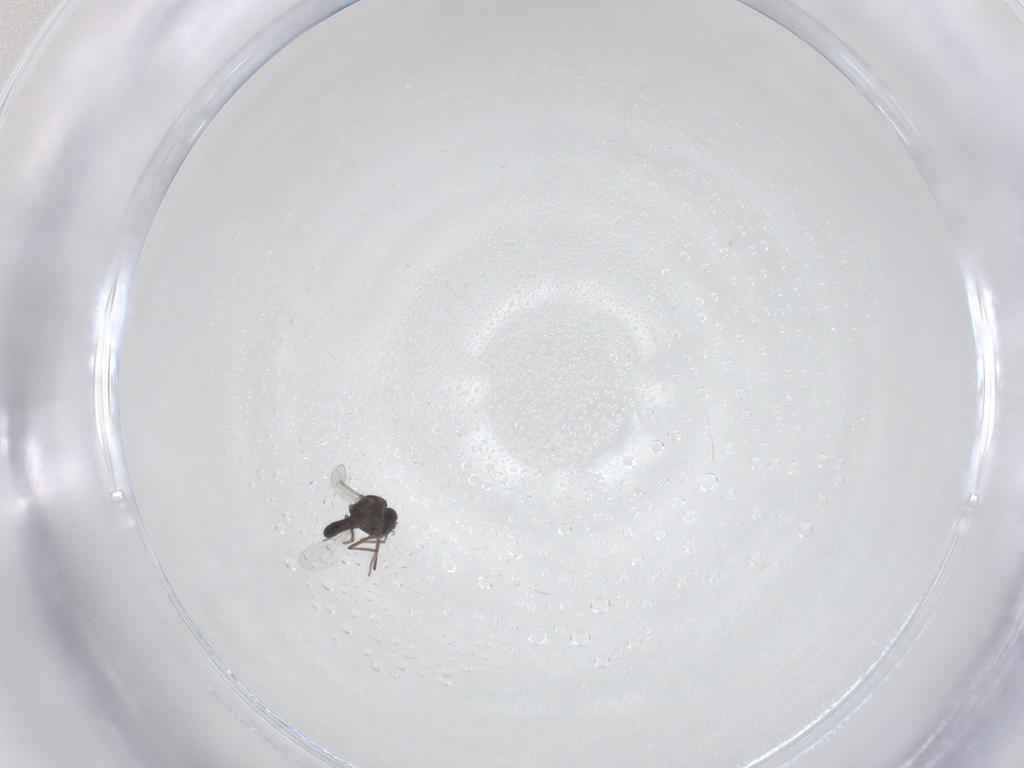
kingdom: Animalia
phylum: Arthropoda
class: Insecta
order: Diptera
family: Ceratopogonidae
